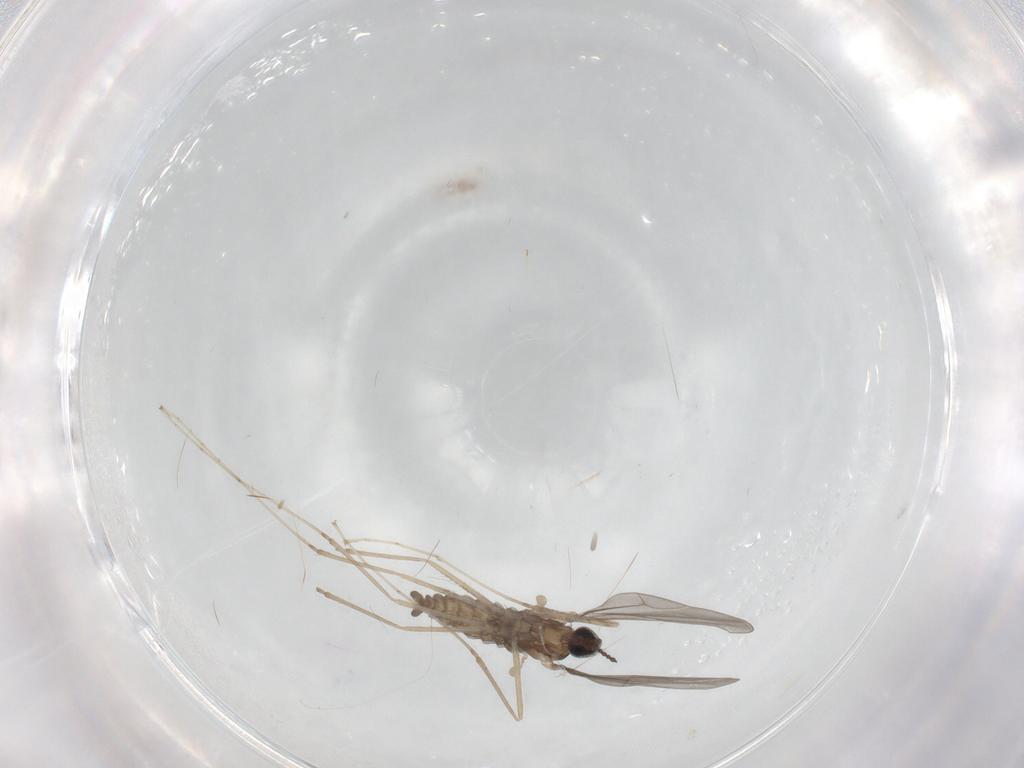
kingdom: Animalia
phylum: Arthropoda
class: Insecta
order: Diptera
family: Cecidomyiidae
